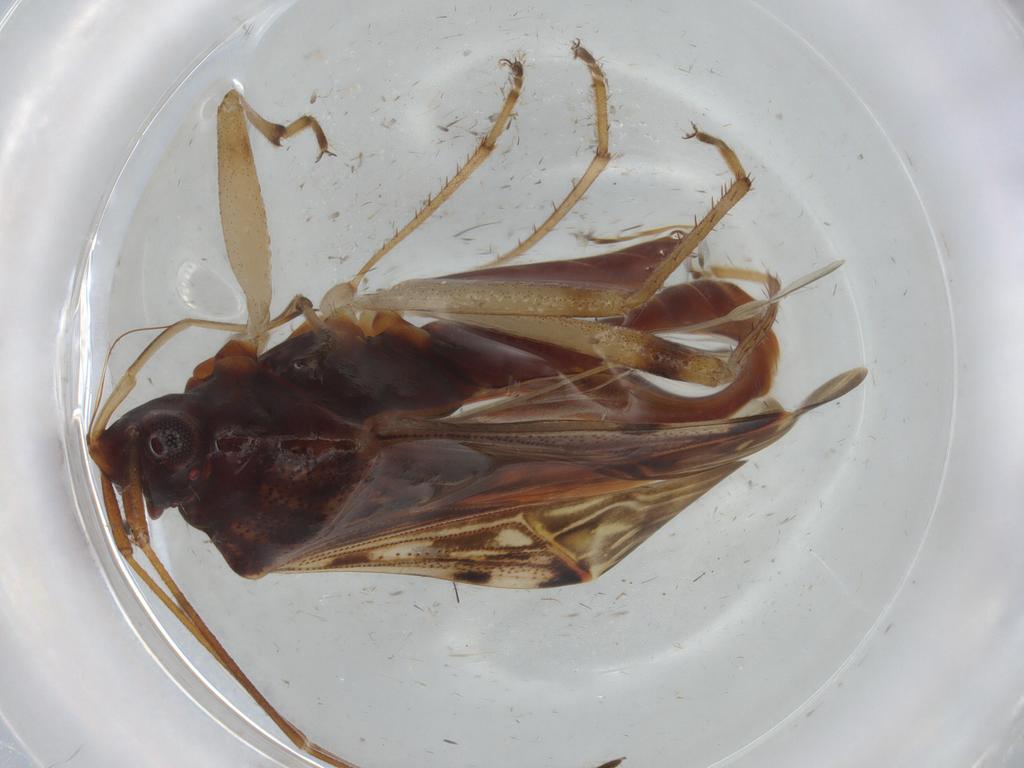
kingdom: Animalia
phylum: Arthropoda
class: Insecta
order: Hemiptera
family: Rhyparochromidae
